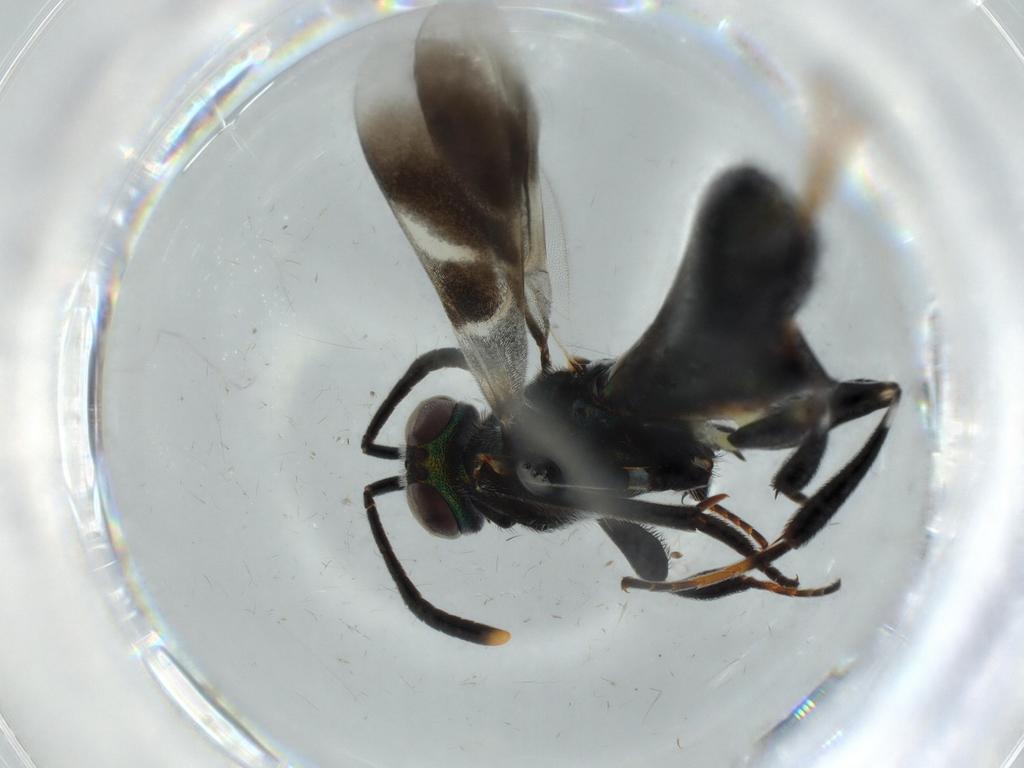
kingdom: Animalia
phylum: Arthropoda
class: Insecta
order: Hymenoptera
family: Eupelmidae
